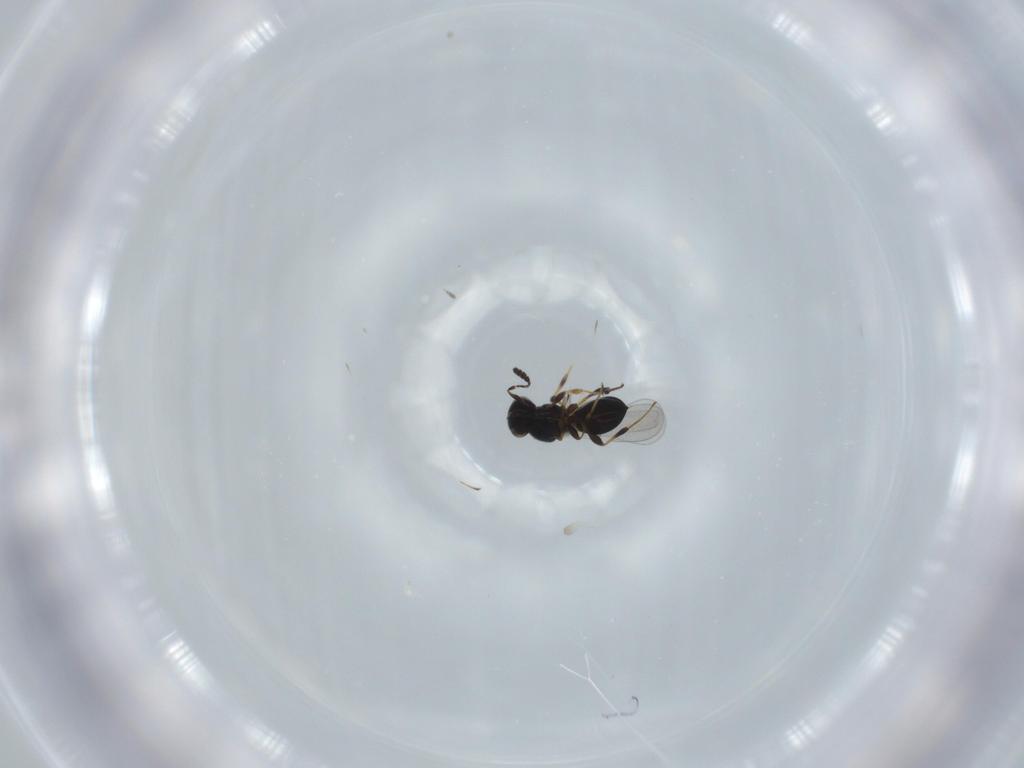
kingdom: Animalia
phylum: Arthropoda
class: Insecta
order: Hymenoptera
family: Platygastridae
